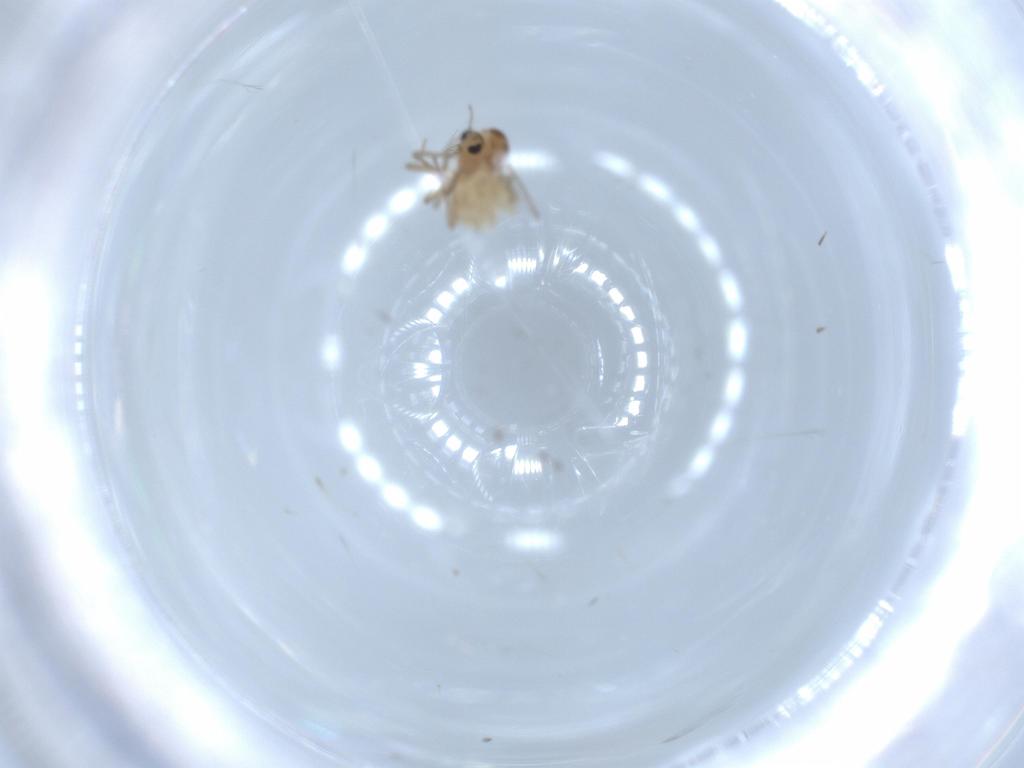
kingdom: Animalia
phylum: Arthropoda
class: Insecta
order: Diptera
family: Chironomidae
